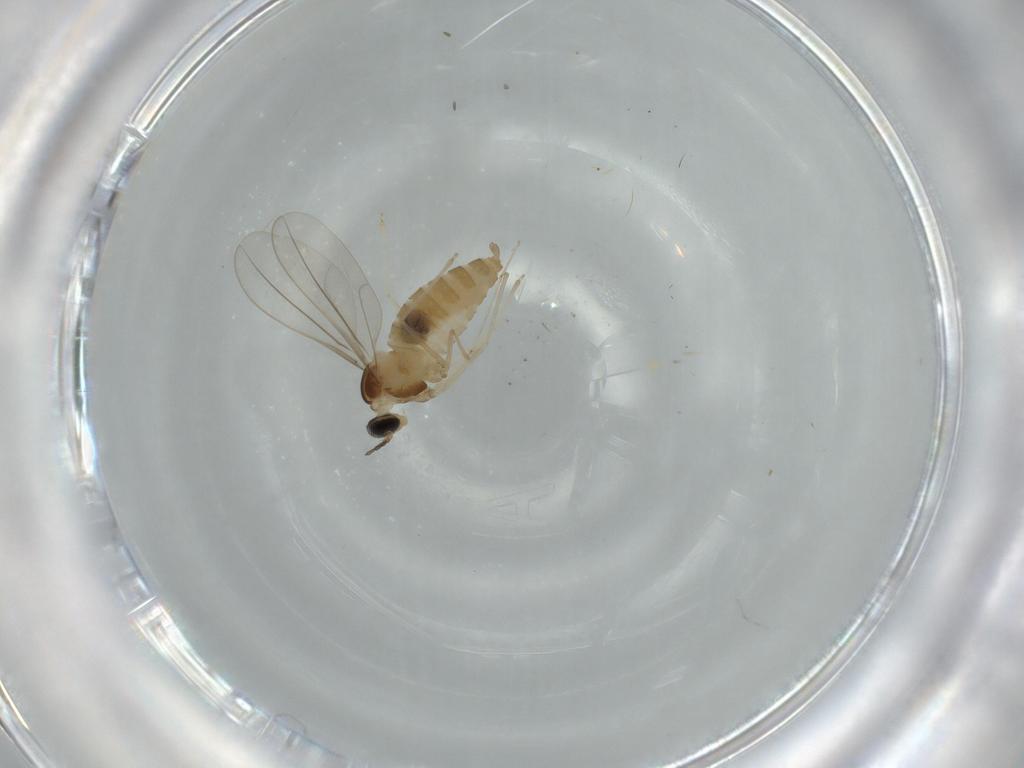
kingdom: Animalia
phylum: Arthropoda
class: Insecta
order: Diptera
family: Cecidomyiidae
